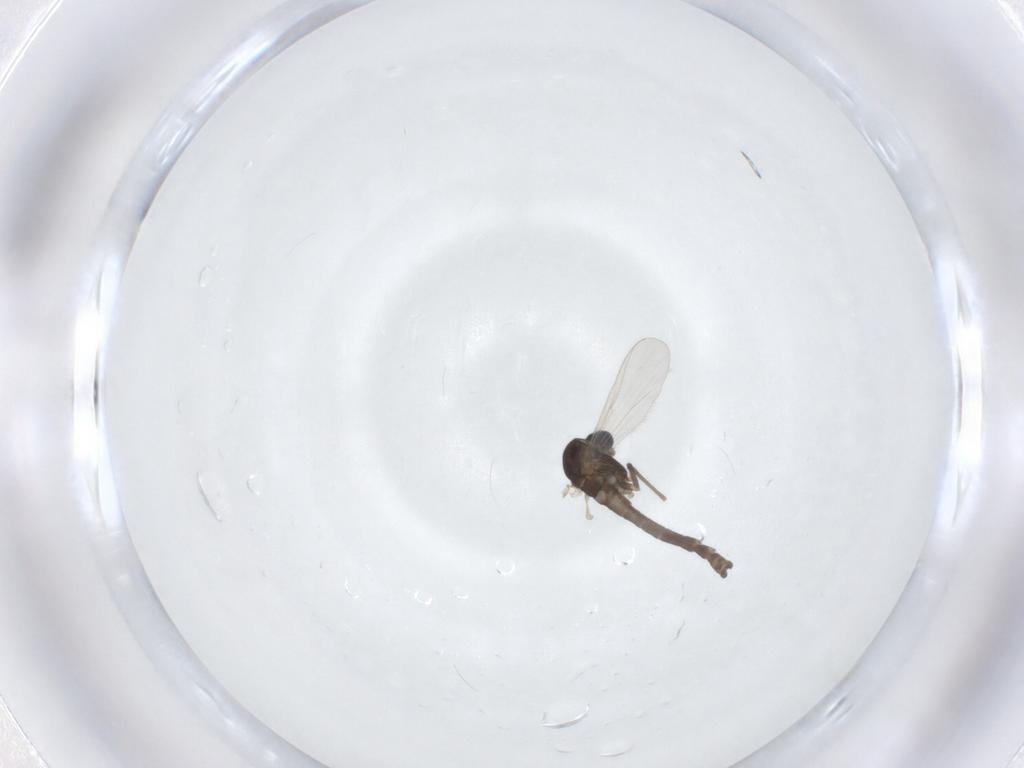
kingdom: Animalia
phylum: Arthropoda
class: Insecta
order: Diptera
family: Chironomidae
